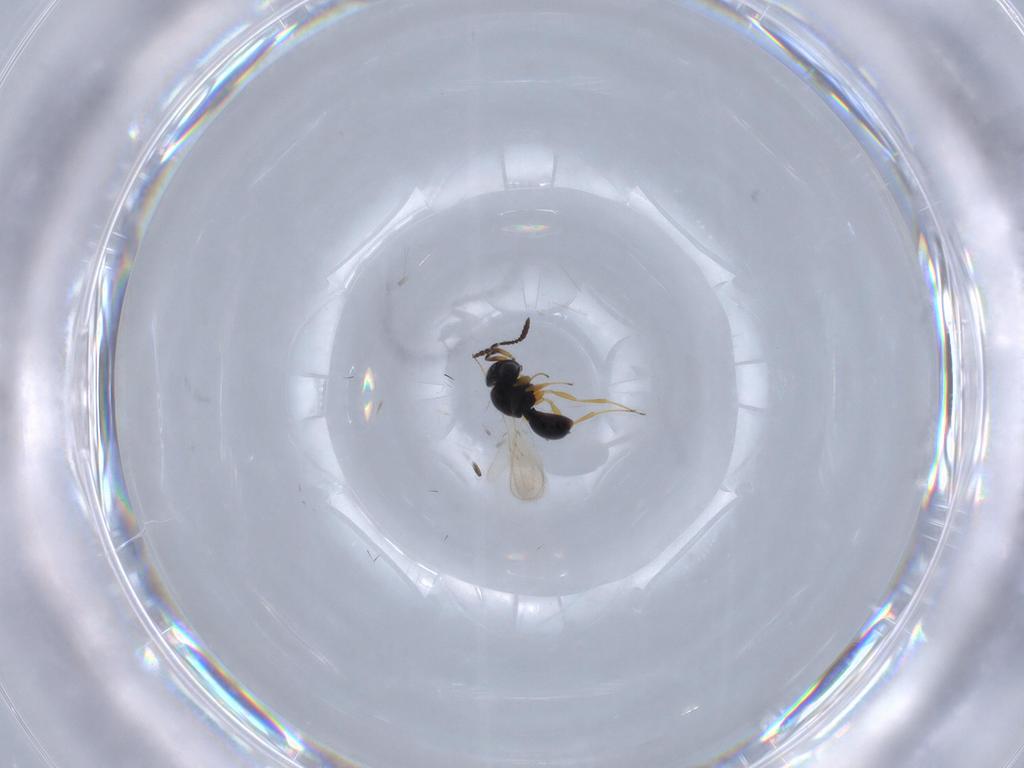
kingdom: Animalia
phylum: Arthropoda
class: Insecta
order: Hymenoptera
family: Scelionidae
